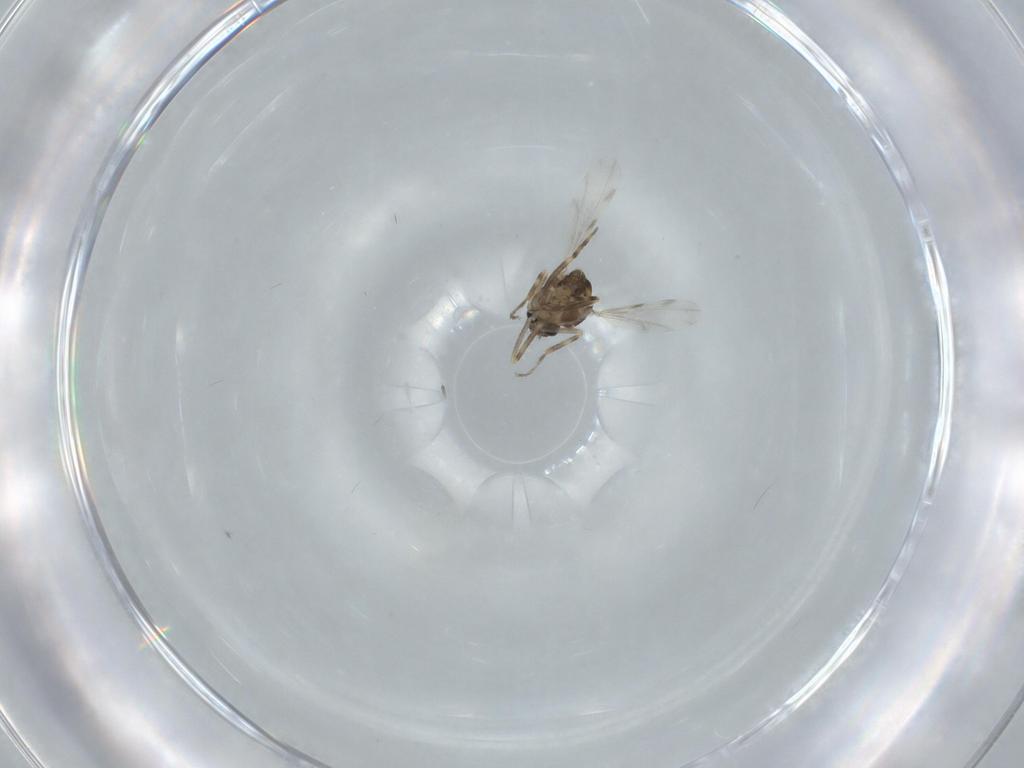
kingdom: Animalia
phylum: Arthropoda
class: Insecta
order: Diptera
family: Ceratopogonidae
